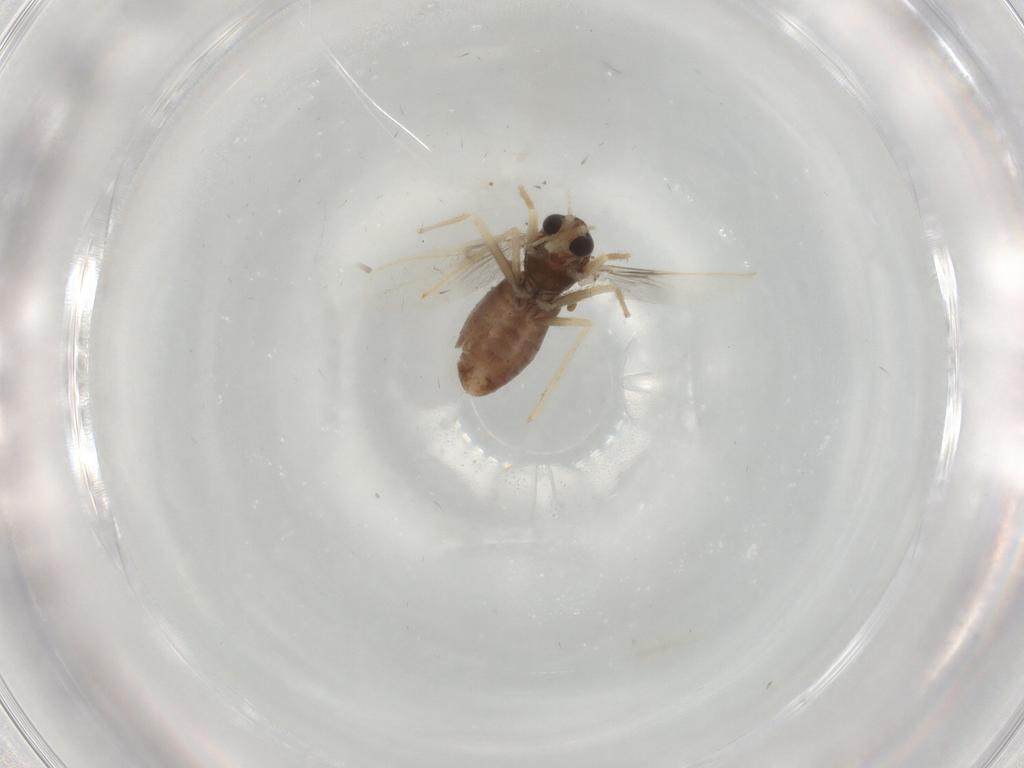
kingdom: Animalia
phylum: Arthropoda
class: Insecta
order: Diptera
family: Chironomidae
